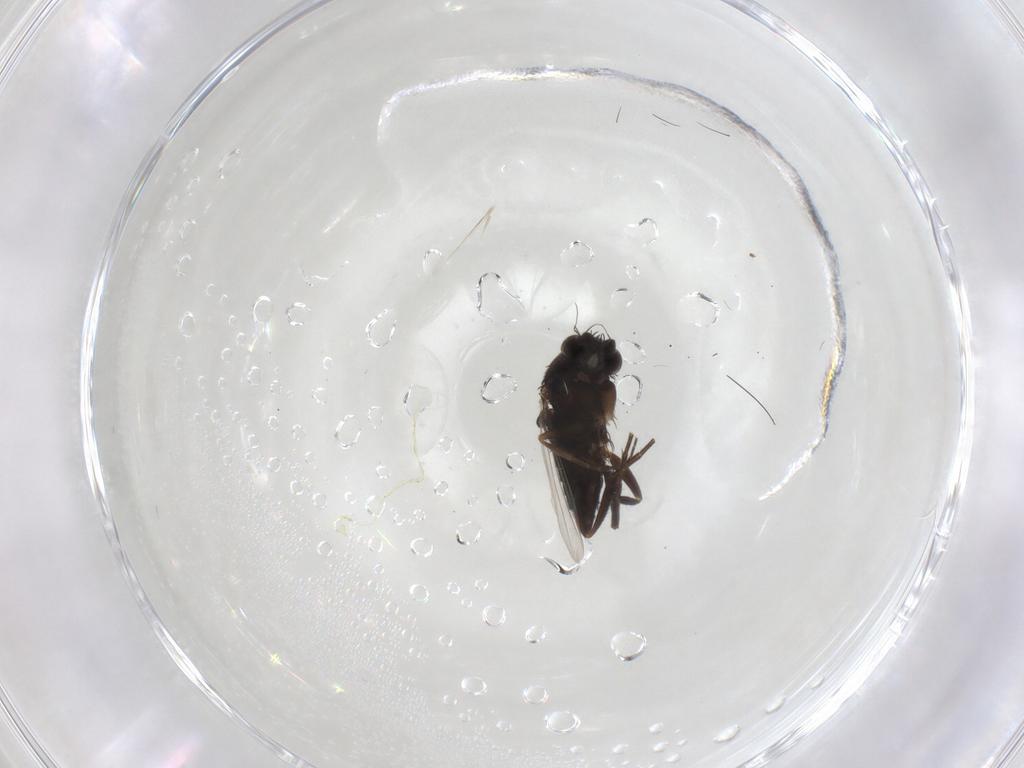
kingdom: Animalia
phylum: Arthropoda
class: Insecta
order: Diptera
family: Phoridae
